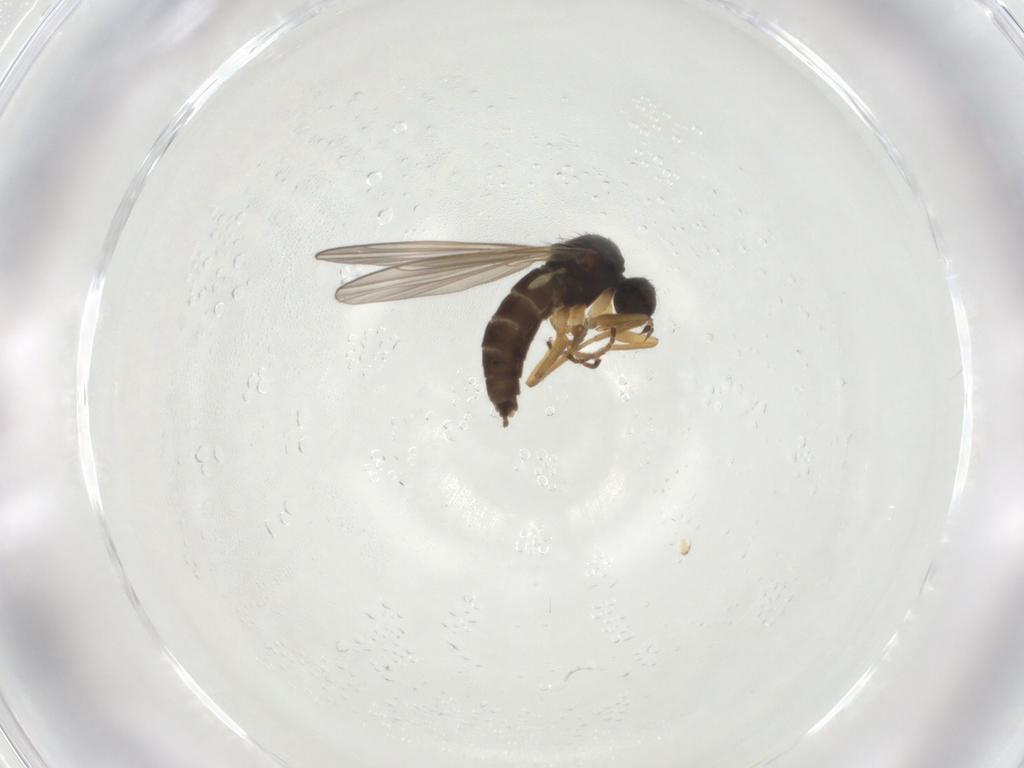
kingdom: Animalia
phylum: Arthropoda
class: Insecta
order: Diptera
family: Hybotidae
